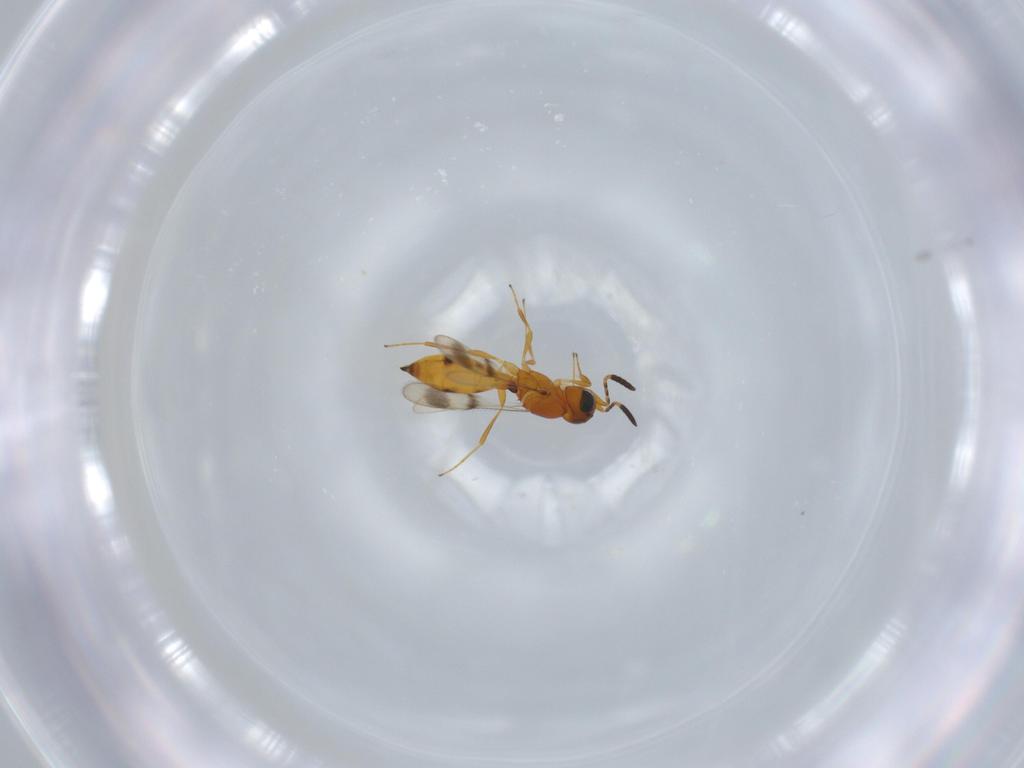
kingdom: Animalia
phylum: Arthropoda
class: Insecta
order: Hymenoptera
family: Scelionidae
